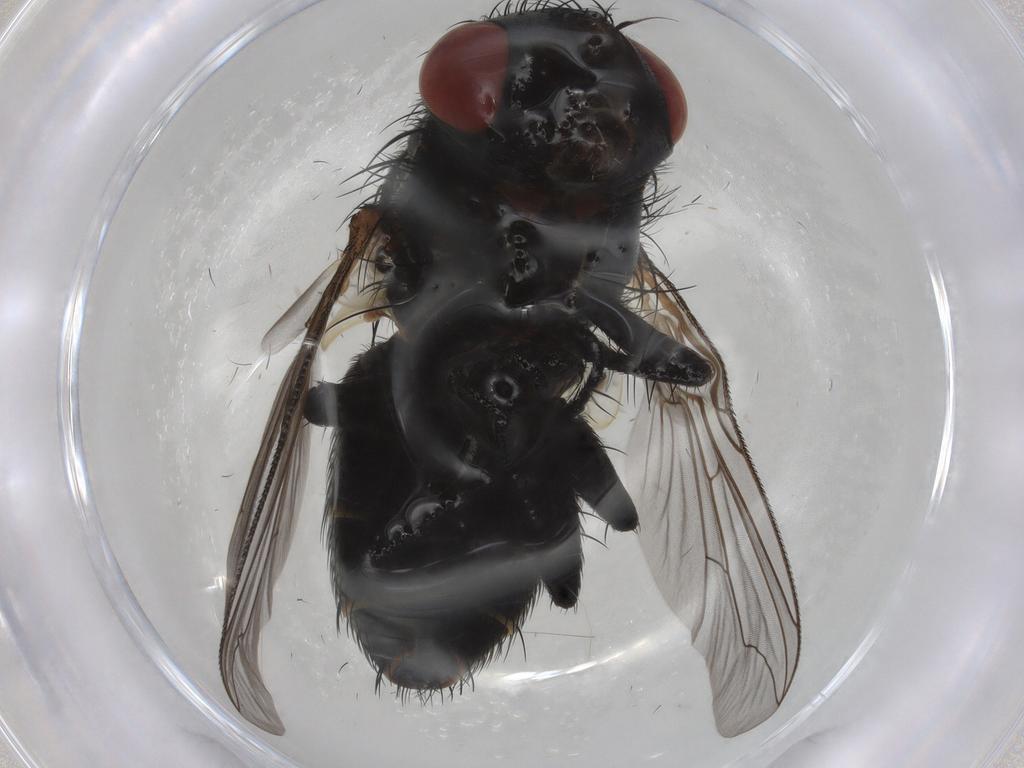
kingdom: Animalia
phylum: Arthropoda
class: Insecta
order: Diptera
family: Sarcophagidae
